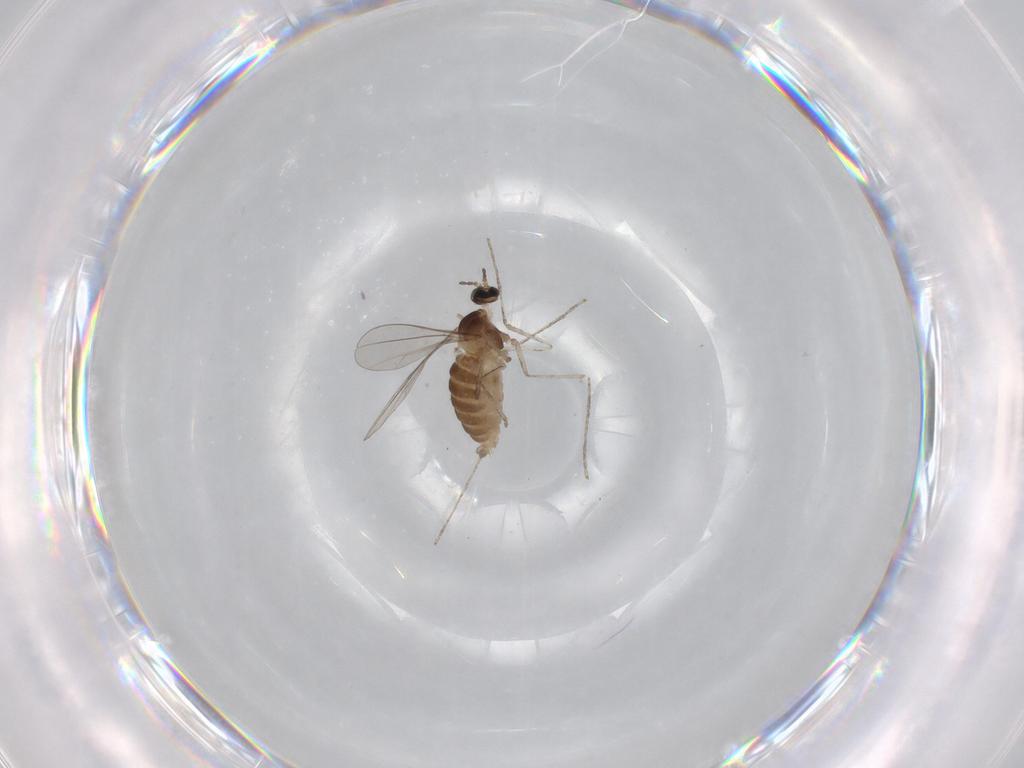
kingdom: Animalia
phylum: Arthropoda
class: Insecta
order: Diptera
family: Cecidomyiidae
